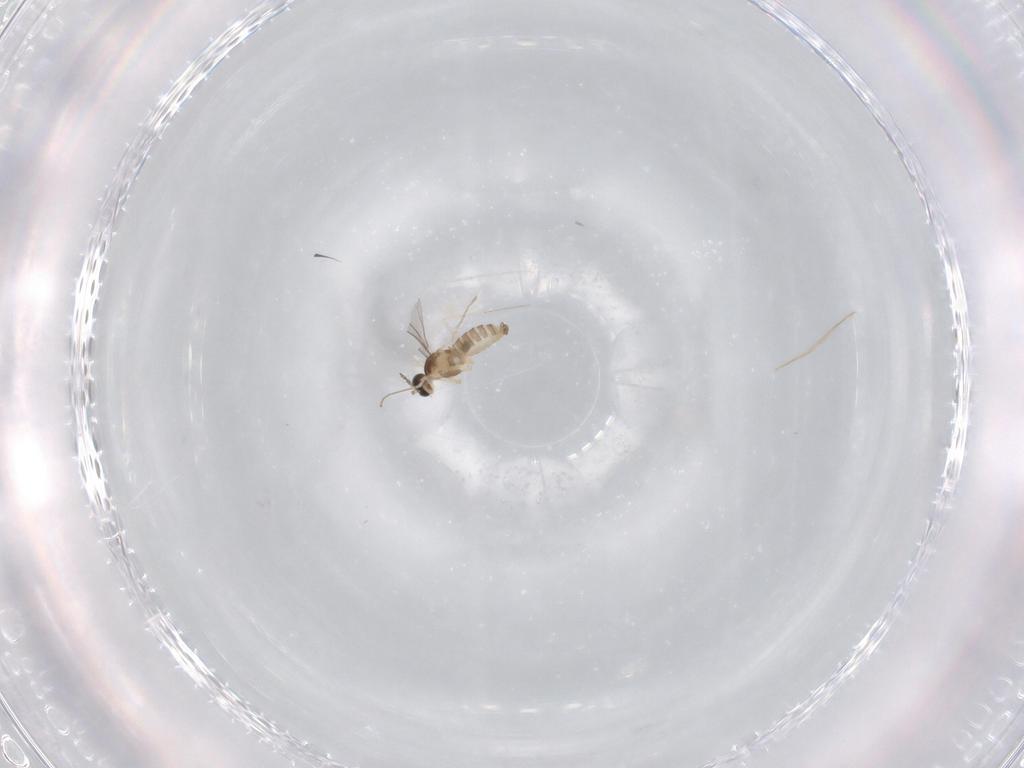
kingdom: Animalia
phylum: Arthropoda
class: Insecta
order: Diptera
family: Cecidomyiidae
